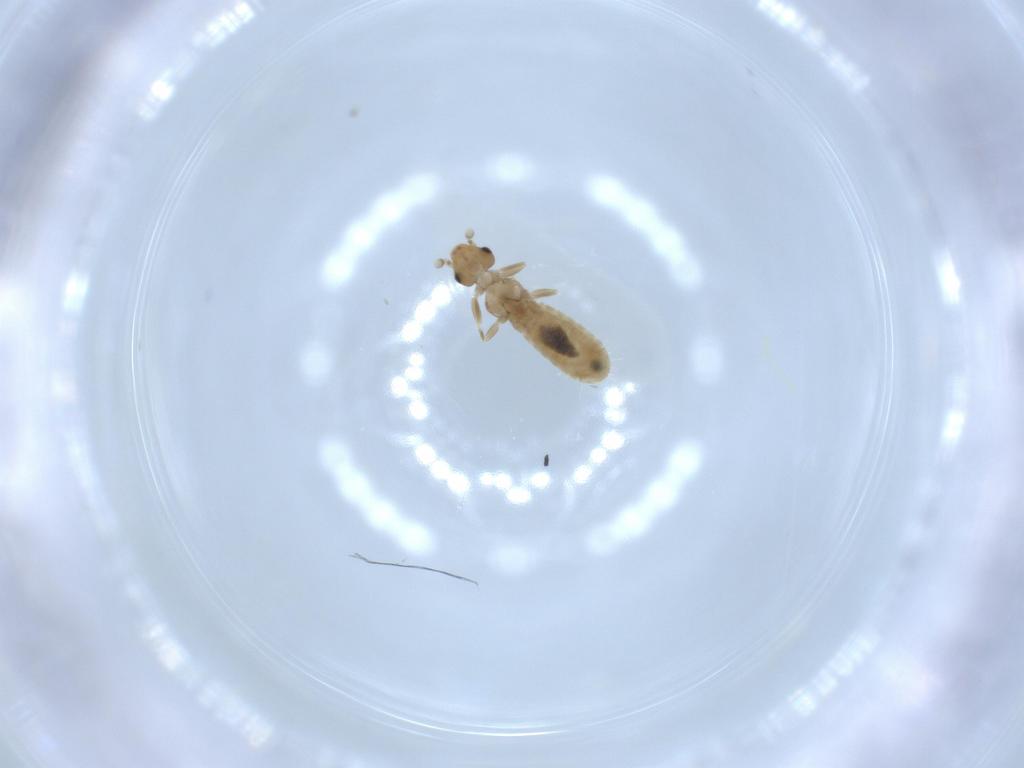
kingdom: Animalia
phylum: Arthropoda
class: Insecta
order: Psocodea
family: Liposcelididae
